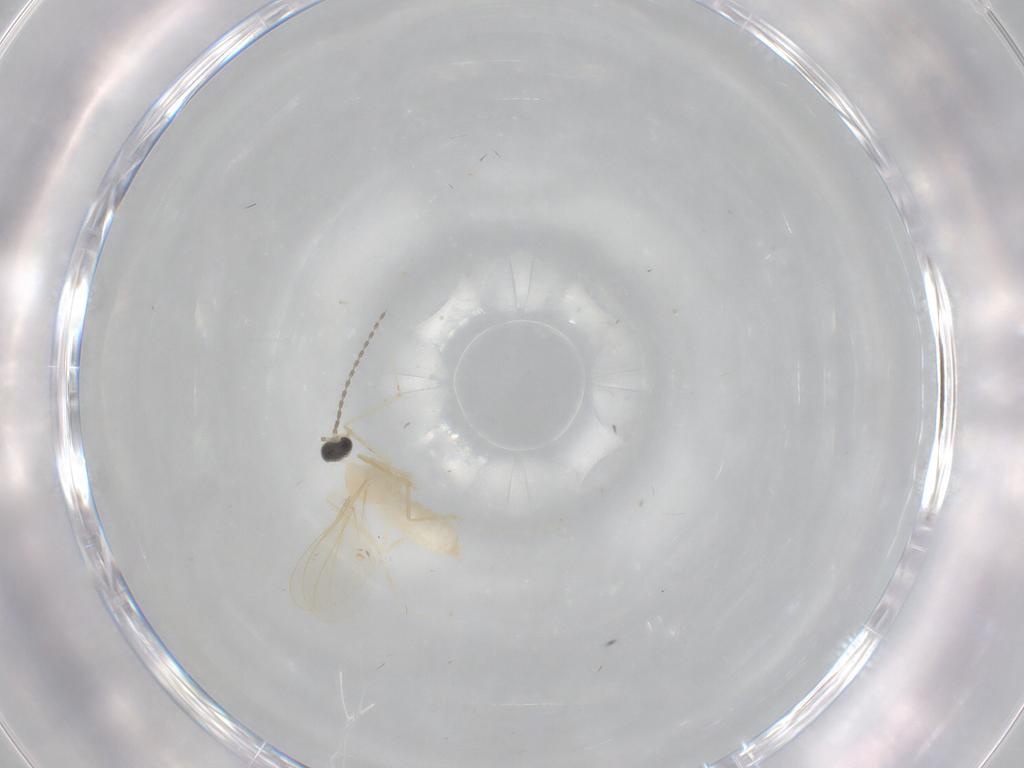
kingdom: Animalia
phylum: Arthropoda
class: Insecta
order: Diptera
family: Cecidomyiidae
